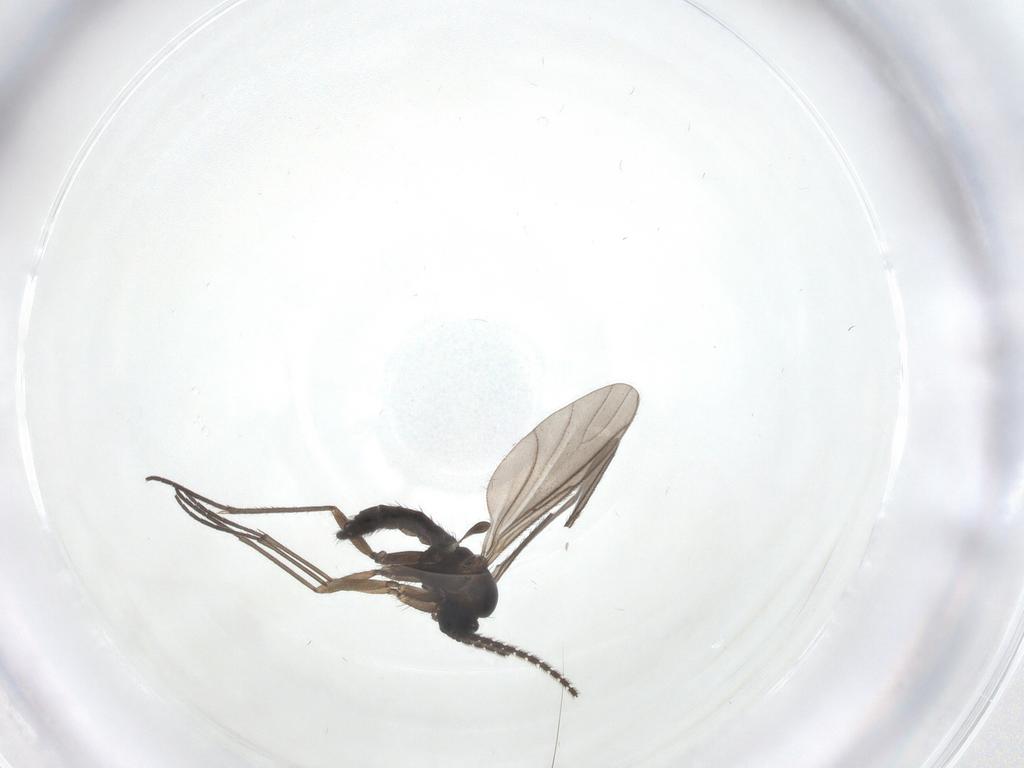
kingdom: Animalia
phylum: Arthropoda
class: Insecta
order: Diptera
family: Sciaridae
